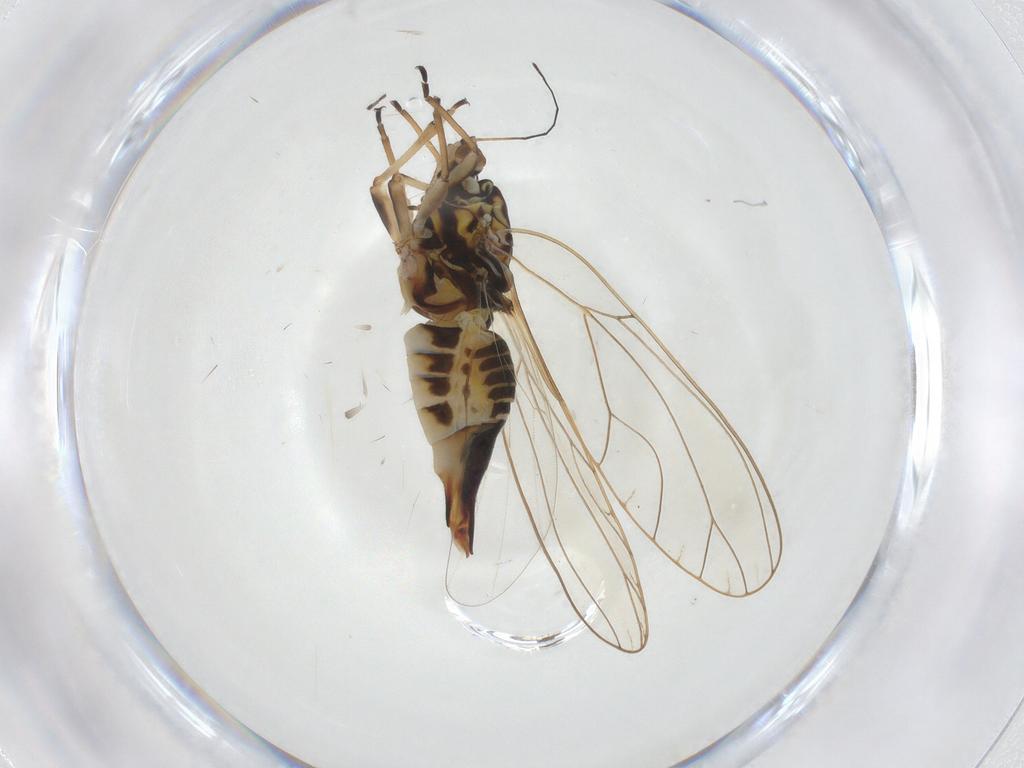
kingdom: Animalia
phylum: Arthropoda
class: Insecta
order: Hemiptera
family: Triozidae
